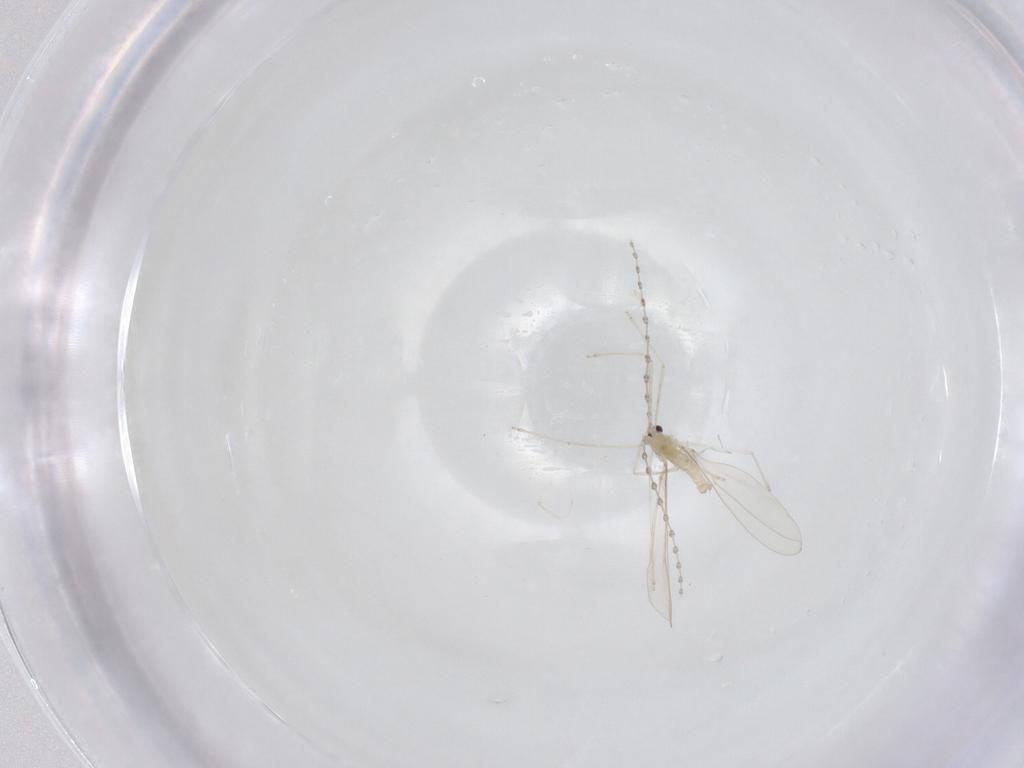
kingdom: Animalia
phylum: Arthropoda
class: Insecta
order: Diptera
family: Cecidomyiidae
